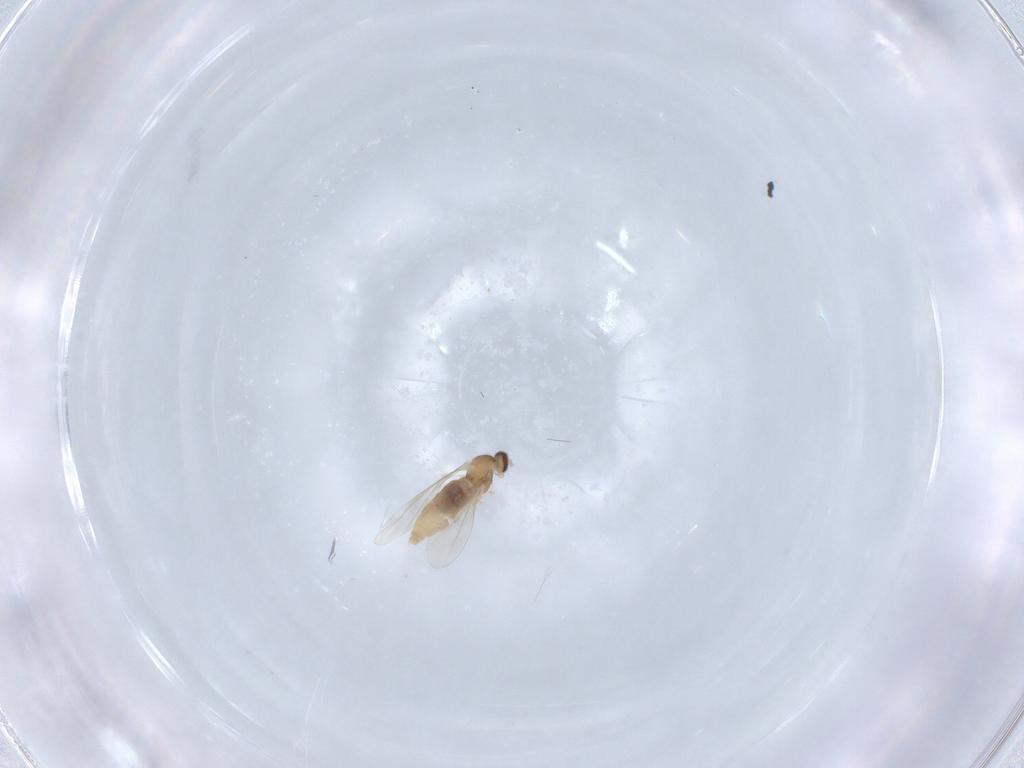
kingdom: Animalia
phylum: Arthropoda
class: Insecta
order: Diptera
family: Cecidomyiidae
